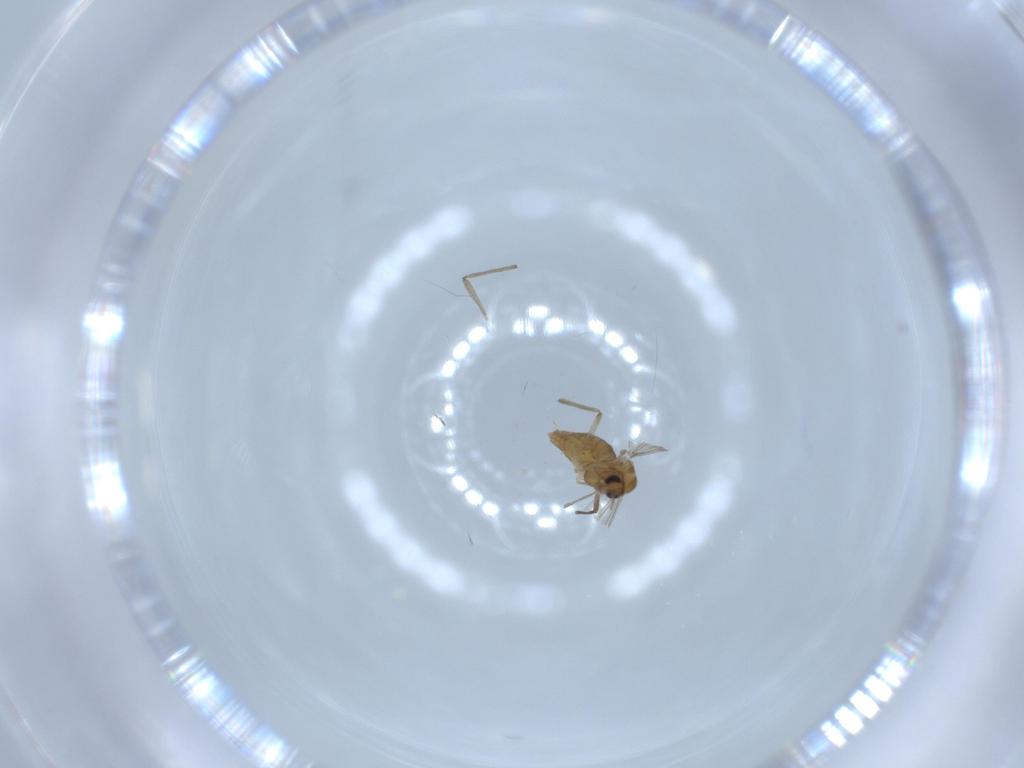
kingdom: Animalia
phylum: Arthropoda
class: Insecta
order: Diptera
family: Chironomidae
